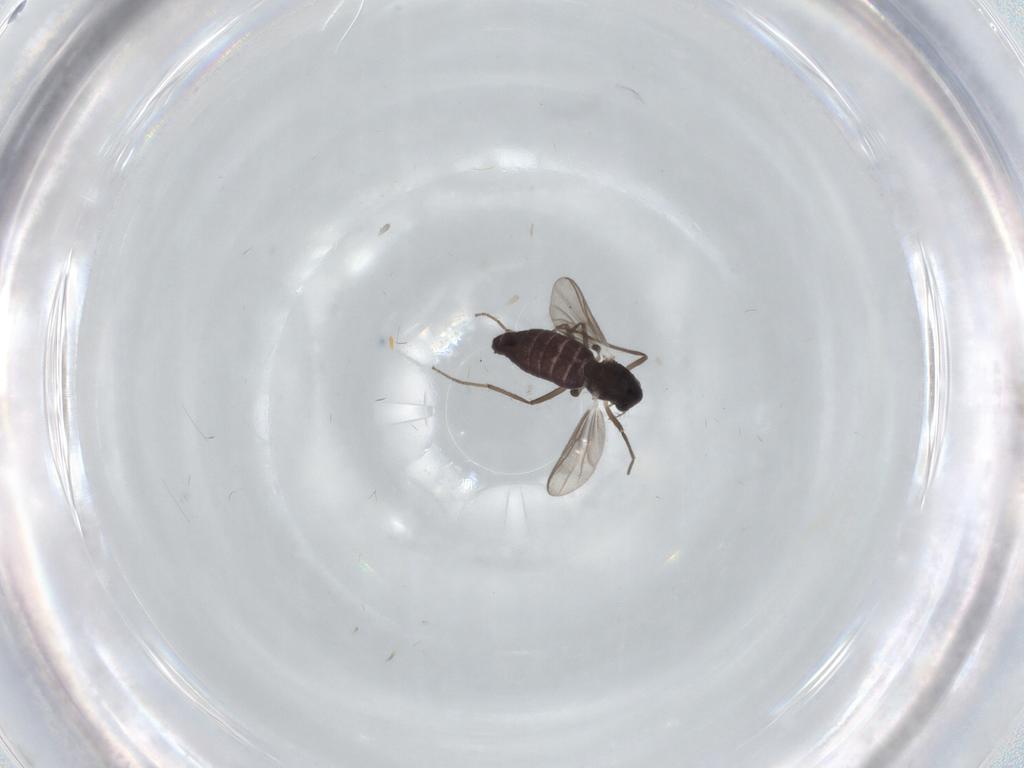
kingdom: Animalia
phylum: Arthropoda
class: Insecta
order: Diptera
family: Chironomidae
